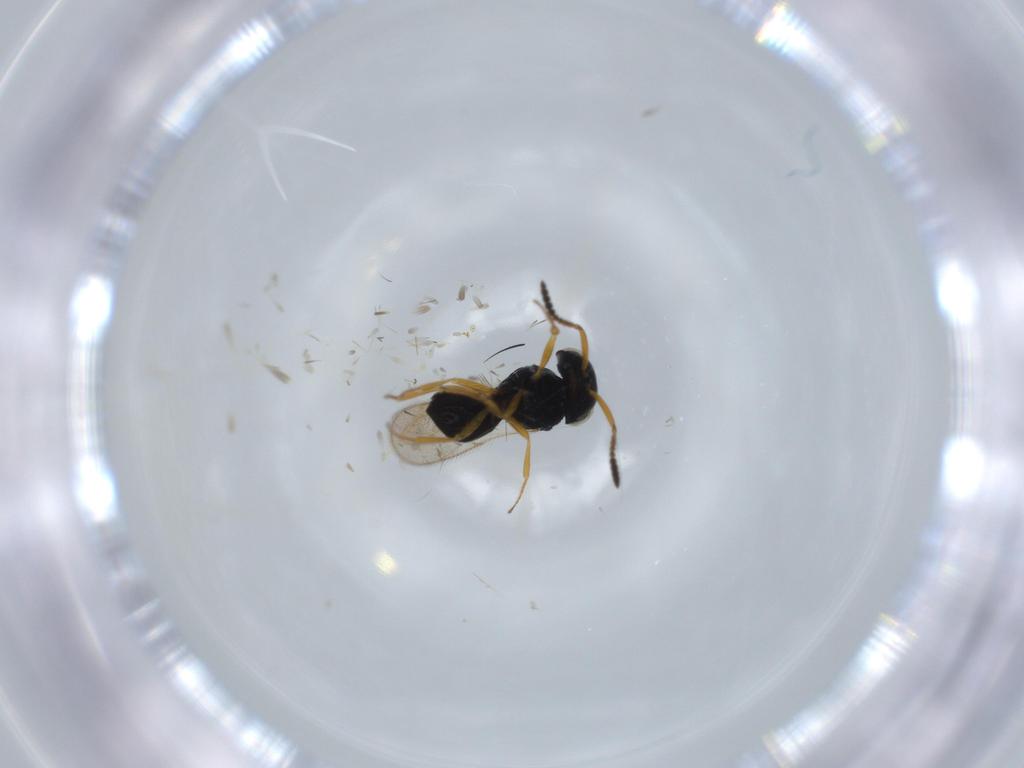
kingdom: Animalia
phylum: Arthropoda
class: Insecta
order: Hymenoptera
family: Scelionidae
